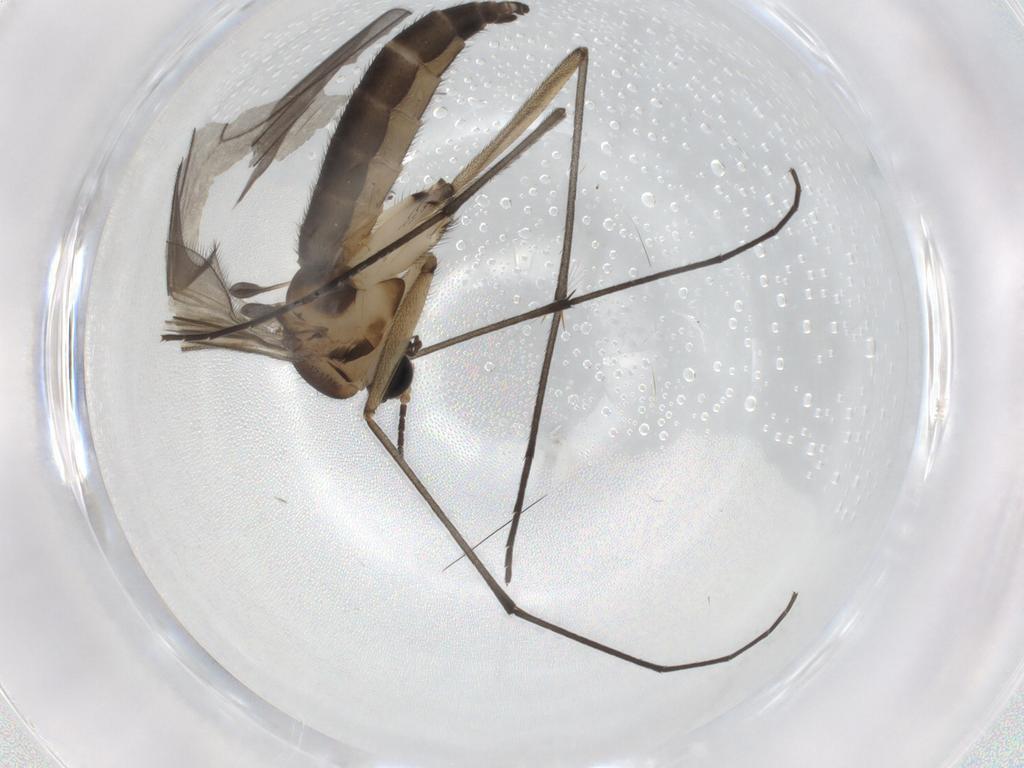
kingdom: Animalia
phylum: Arthropoda
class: Insecta
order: Diptera
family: Sciaridae
